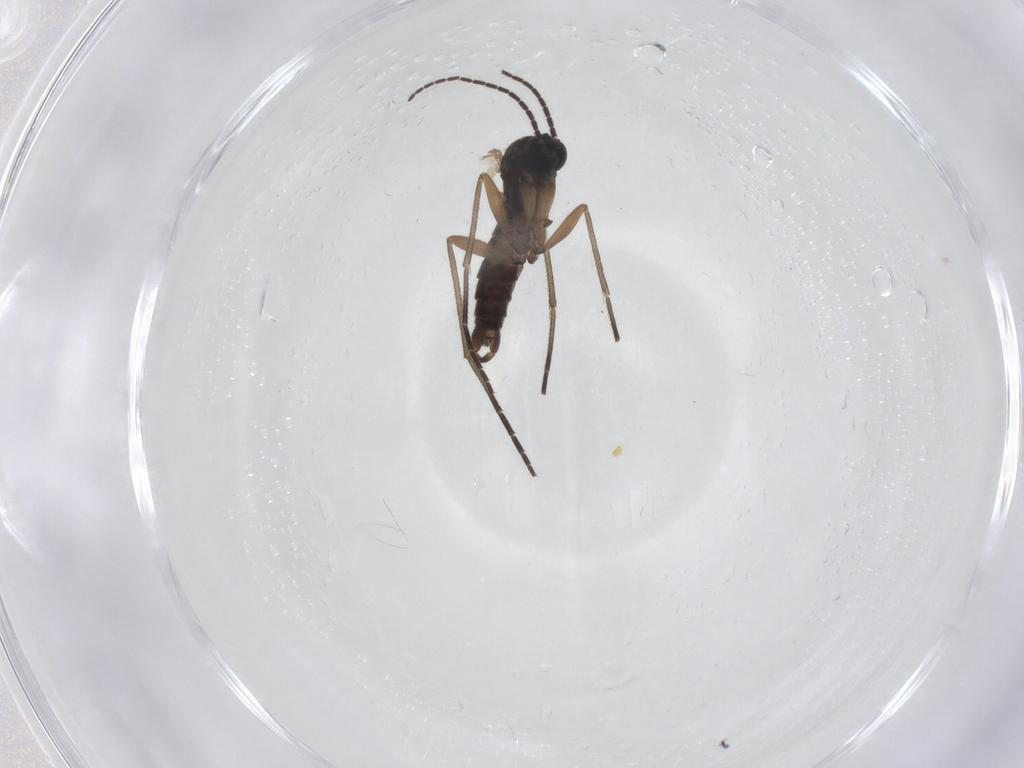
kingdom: Animalia
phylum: Arthropoda
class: Insecta
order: Diptera
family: Sciaridae
